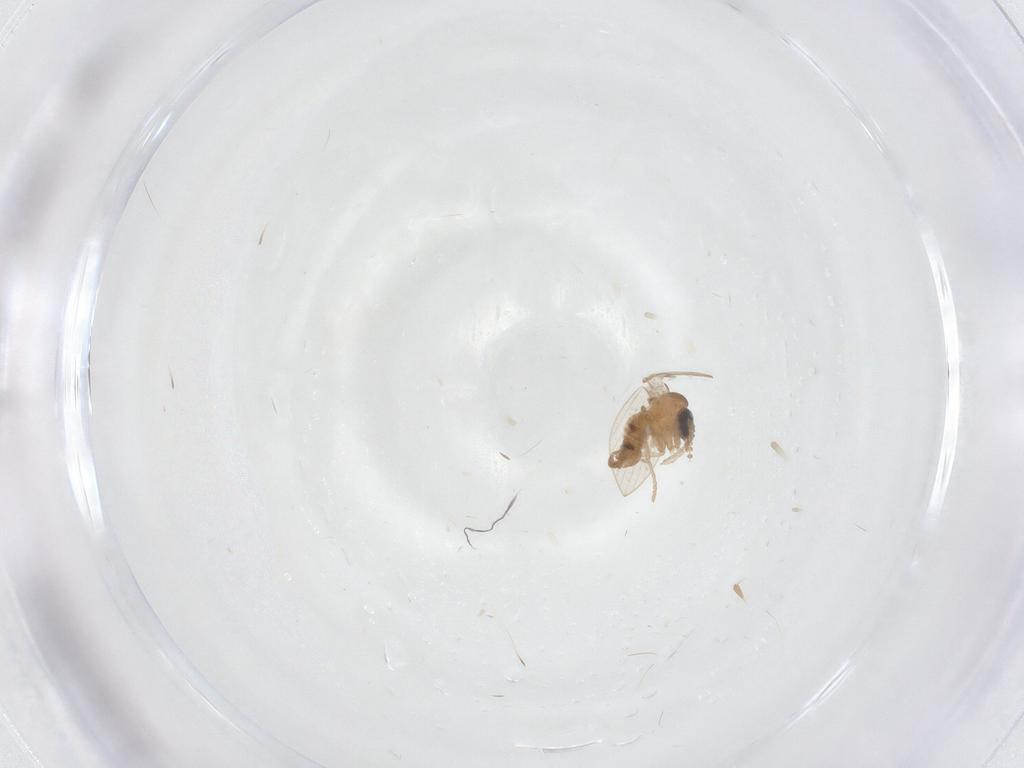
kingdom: Animalia
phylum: Arthropoda
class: Insecta
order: Diptera
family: Psychodidae
